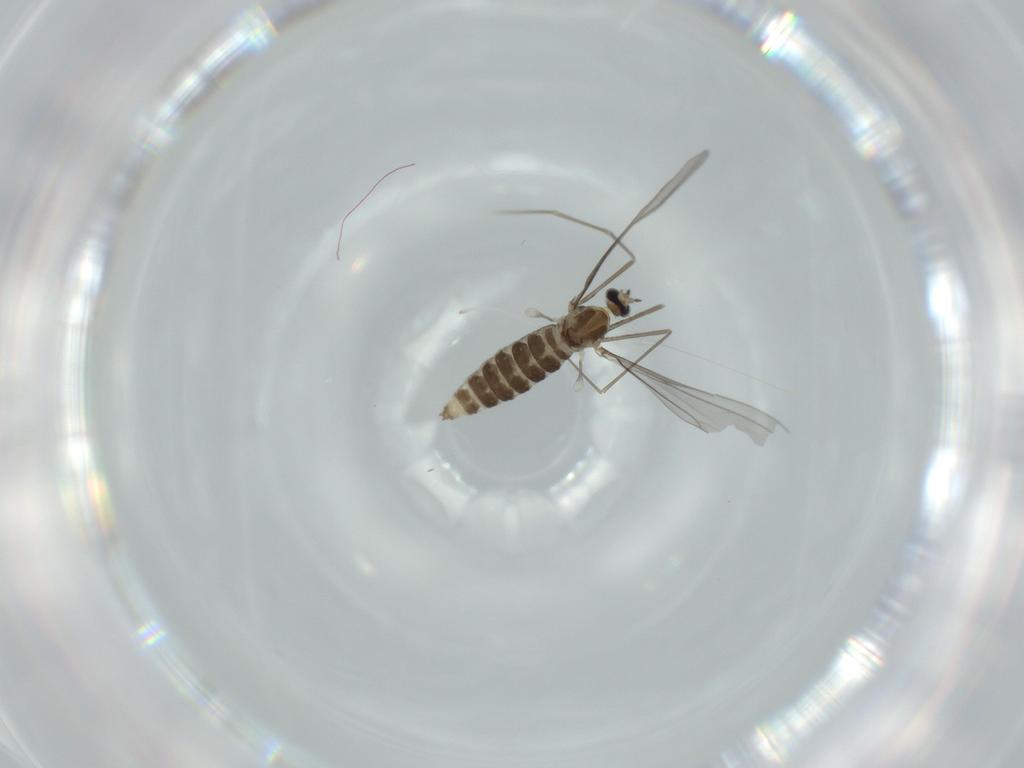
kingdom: Animalia
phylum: Arthropoda
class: Insecta
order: Diptera
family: Cecidomyiidae
